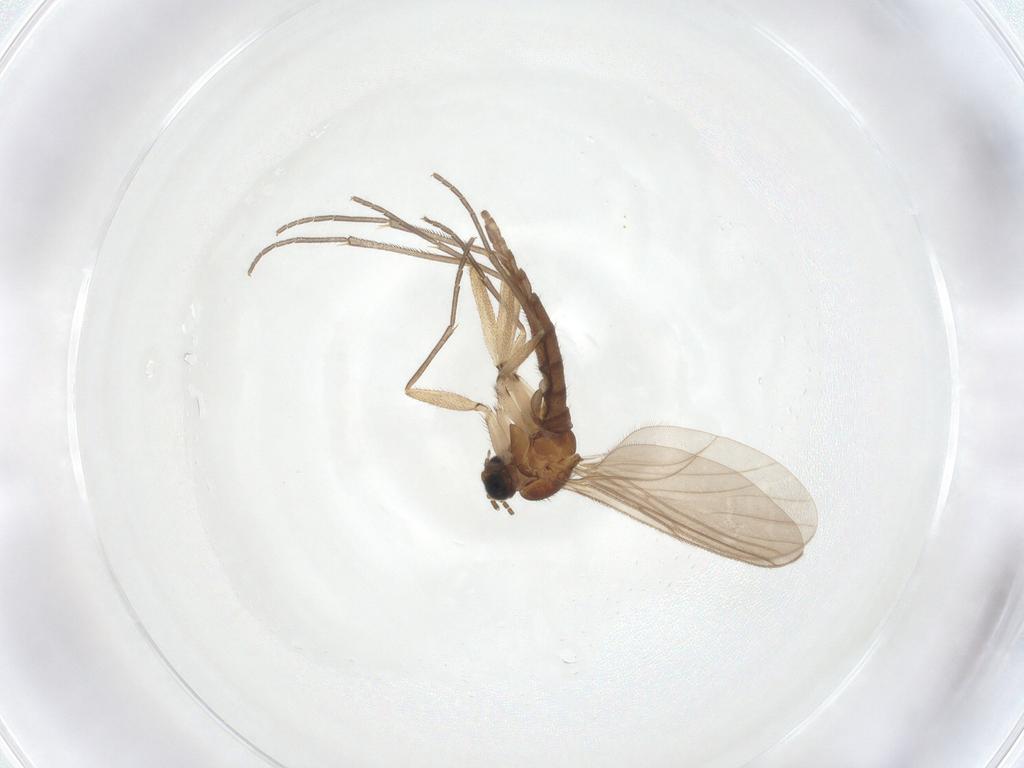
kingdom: Animalia
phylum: Arthropoda
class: Insecta
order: Diptera
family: Sciaridae
